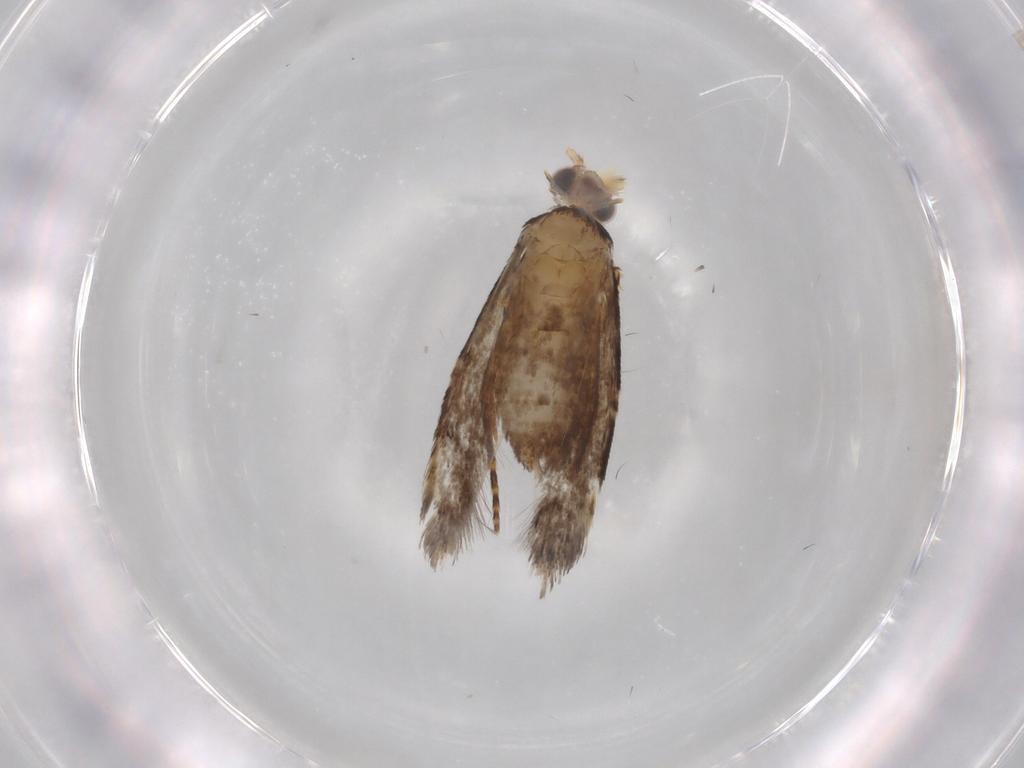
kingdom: Animalia
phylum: Arthropoda
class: Insecta
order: Lepidoptera
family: Tineidae
